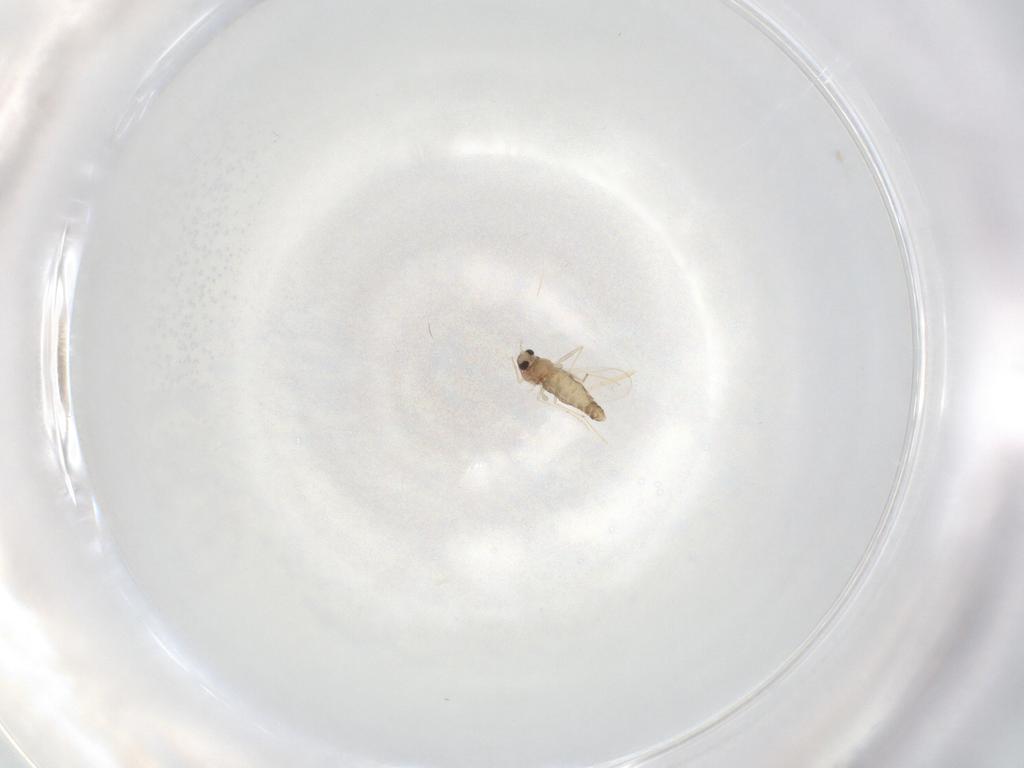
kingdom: Animalia
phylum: Arthropoda
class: Insecta
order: Diptera
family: Chironomidae
